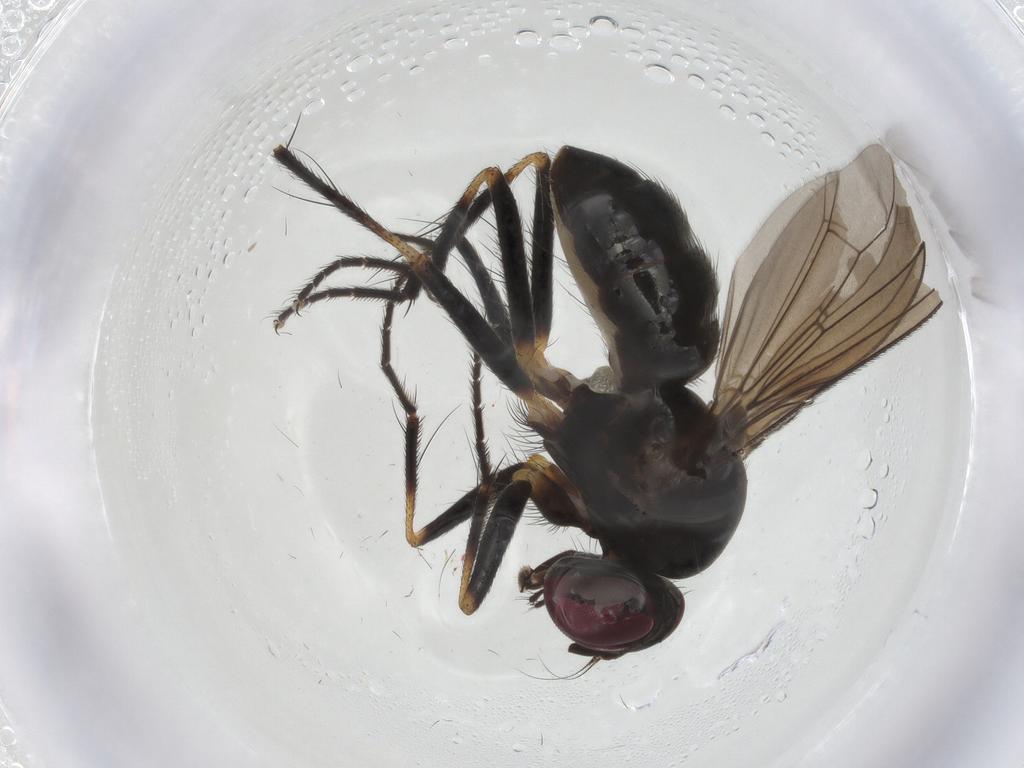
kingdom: Animalia
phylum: Arthropoda
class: Insecta
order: Diptera
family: Anthomyiidae
